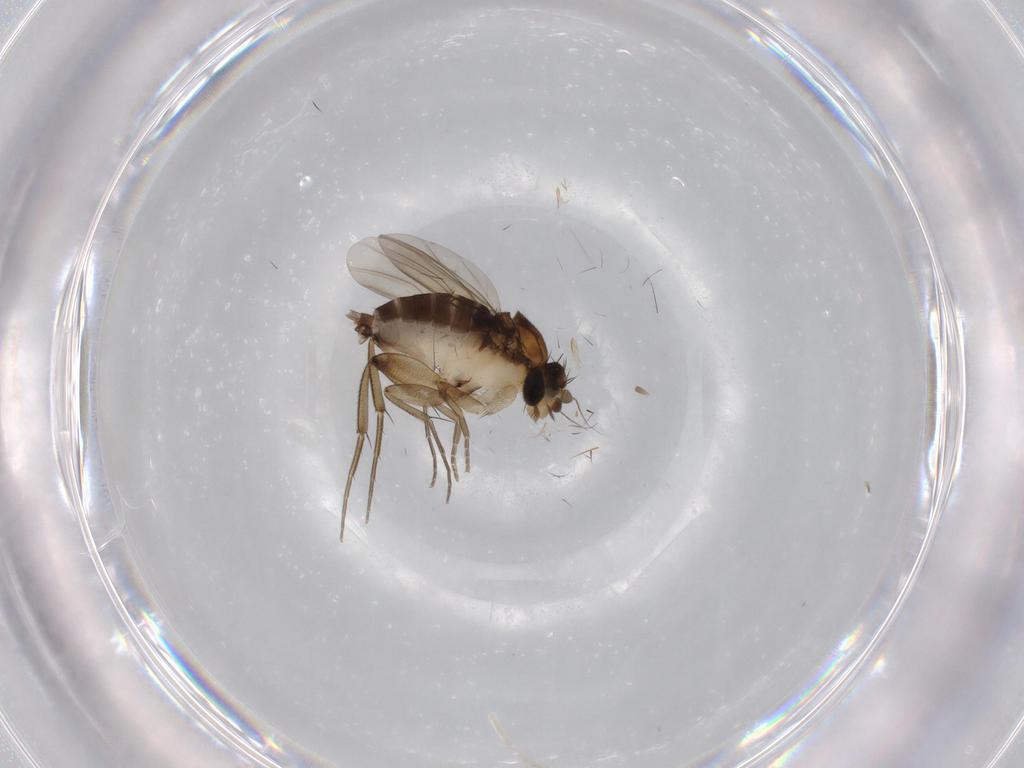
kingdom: Animalia
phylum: Arthropoda
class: Insecta
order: Diptera
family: Phoridae
